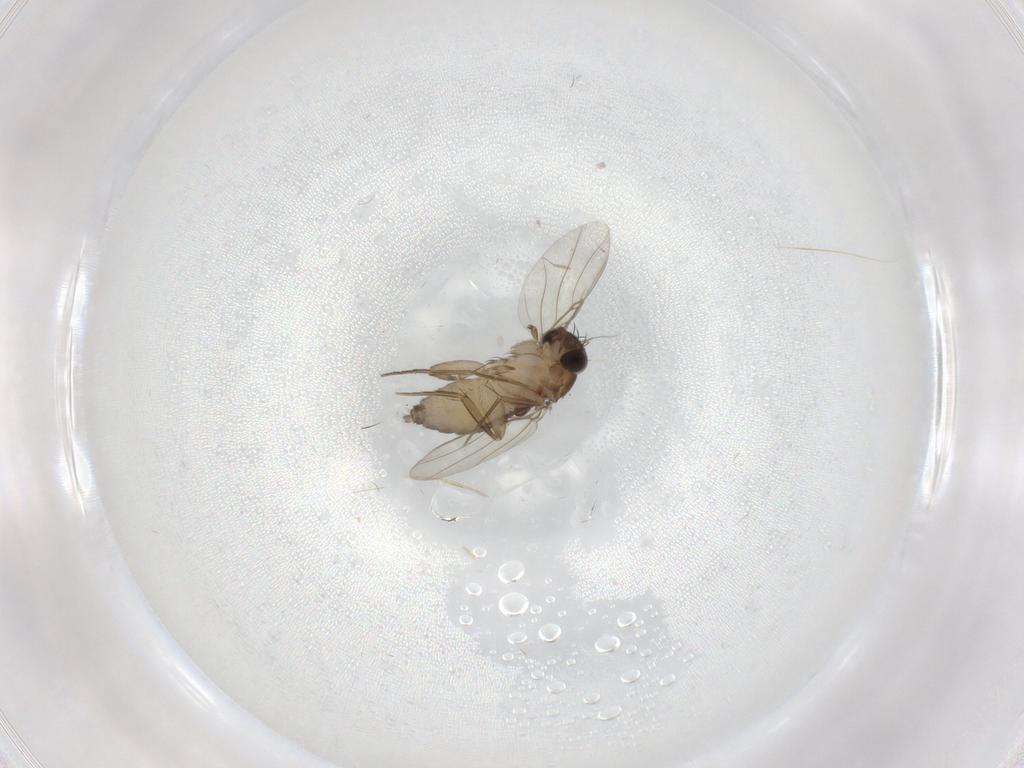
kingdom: Animalia
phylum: Arthropoda
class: Insecta
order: Diptera
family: Phoridae
